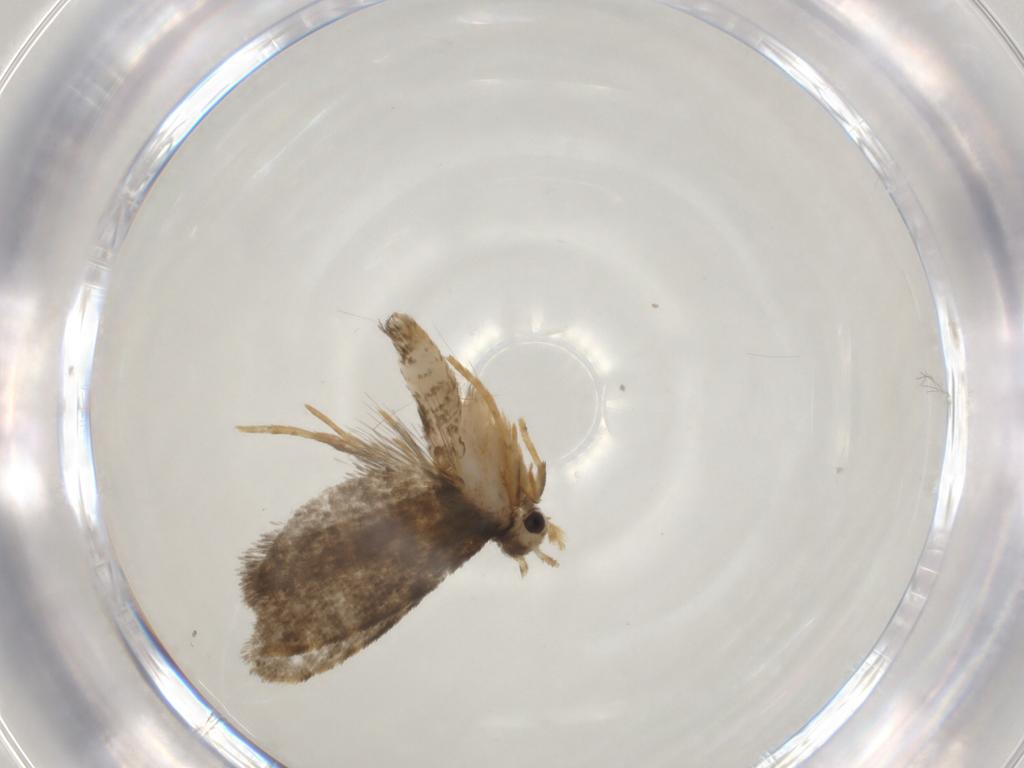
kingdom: Animalia
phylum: Arthropoda
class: Insecta
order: Lepidoptera
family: Psychidae
